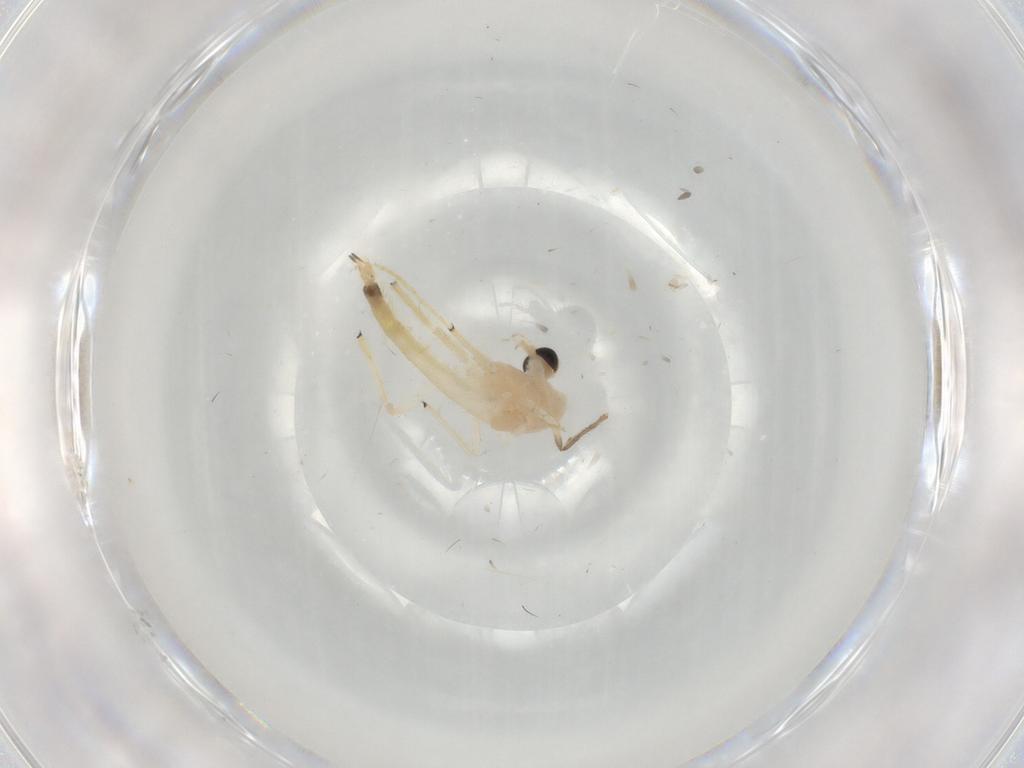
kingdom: Animalia
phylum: Arthropoda
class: Insecta
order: Diptera
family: Chironomidae
